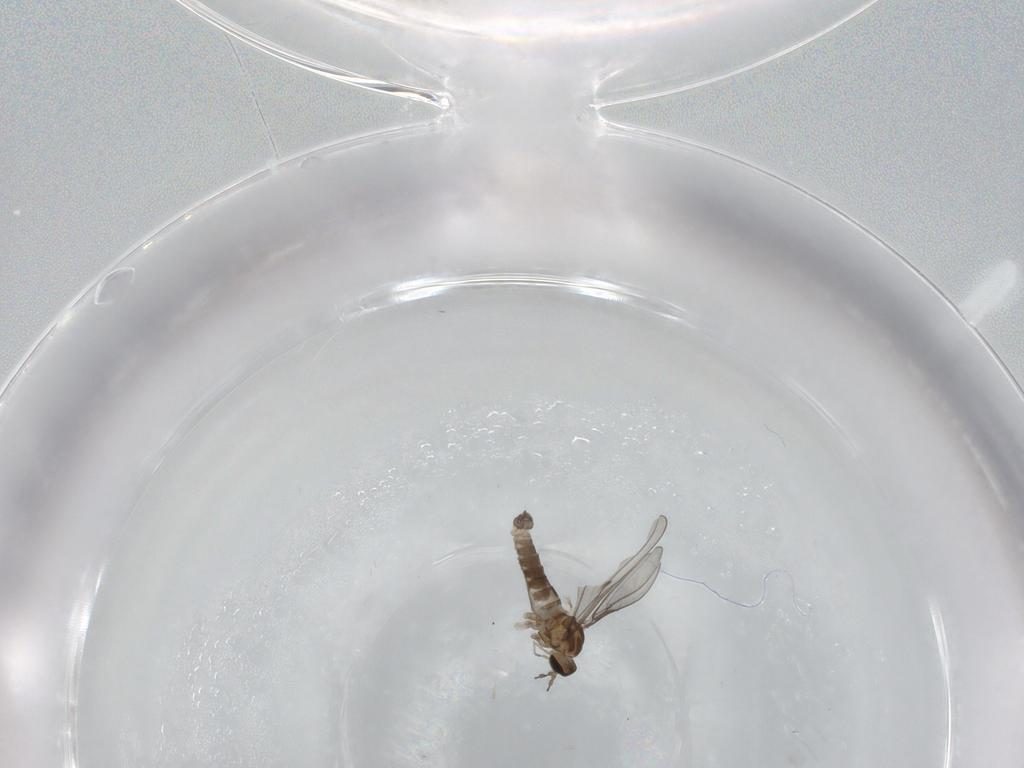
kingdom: Animalia
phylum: Arthropoda
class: Insecta
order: Diptera
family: Cecidomyiidae
